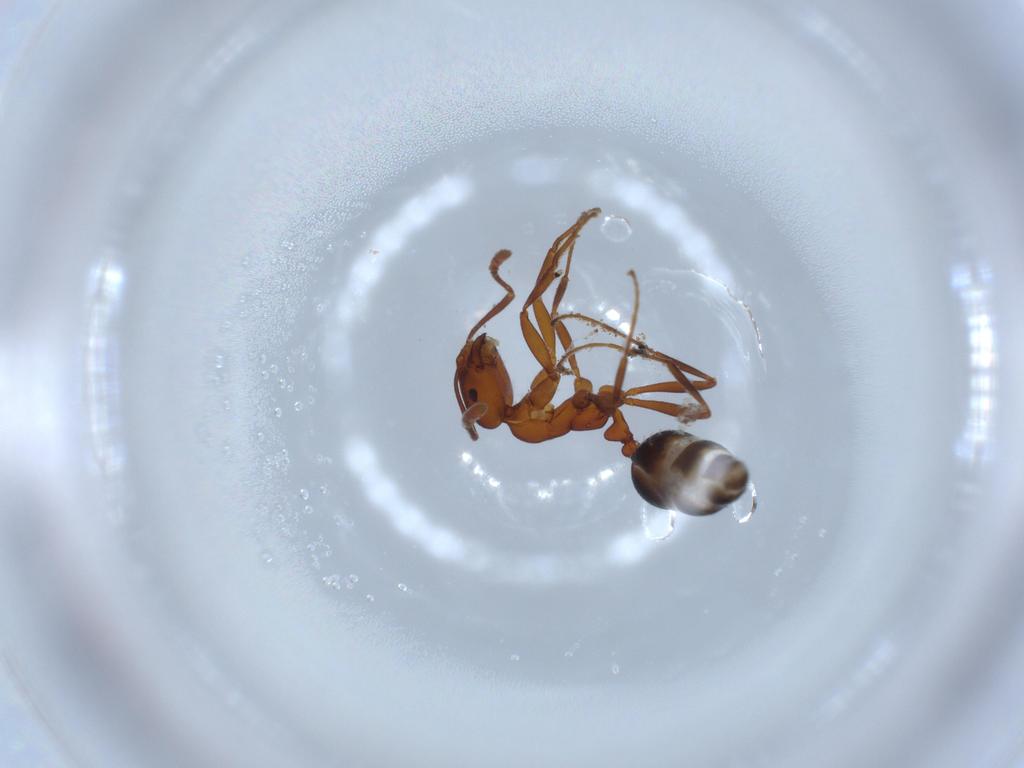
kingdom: Animalia
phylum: Arthropoda
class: Insecta
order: Hymenoptera
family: Formicidae
